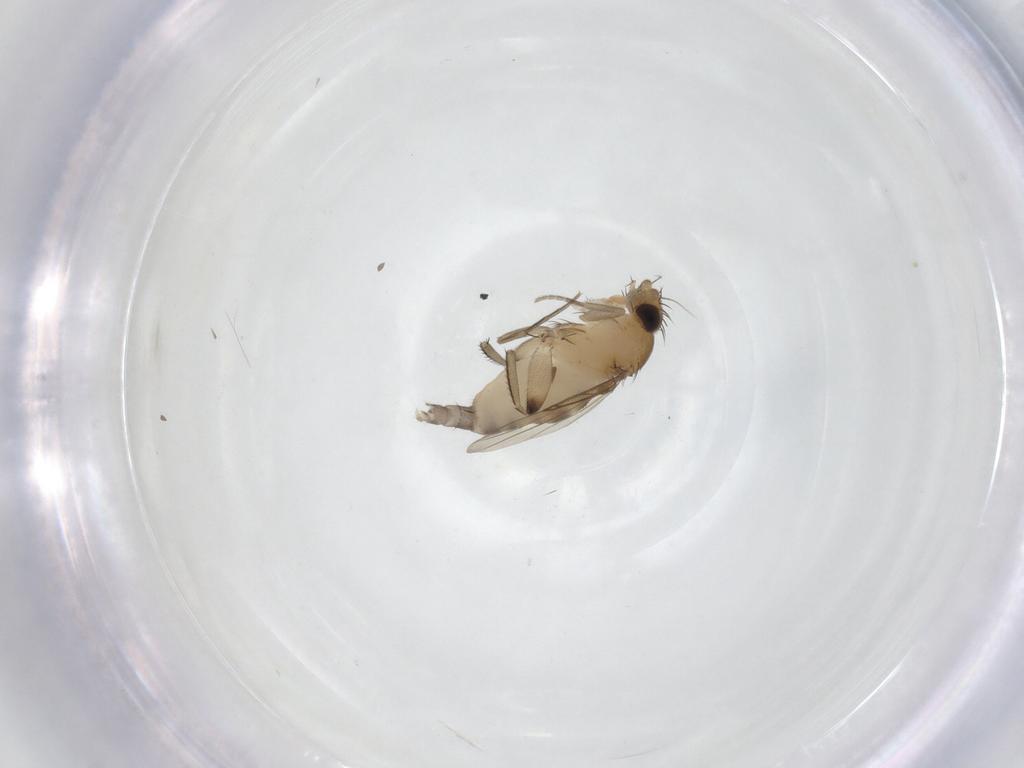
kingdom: Animalia
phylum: Arthropoda
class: Insecta
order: Diptera
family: Phoridae
